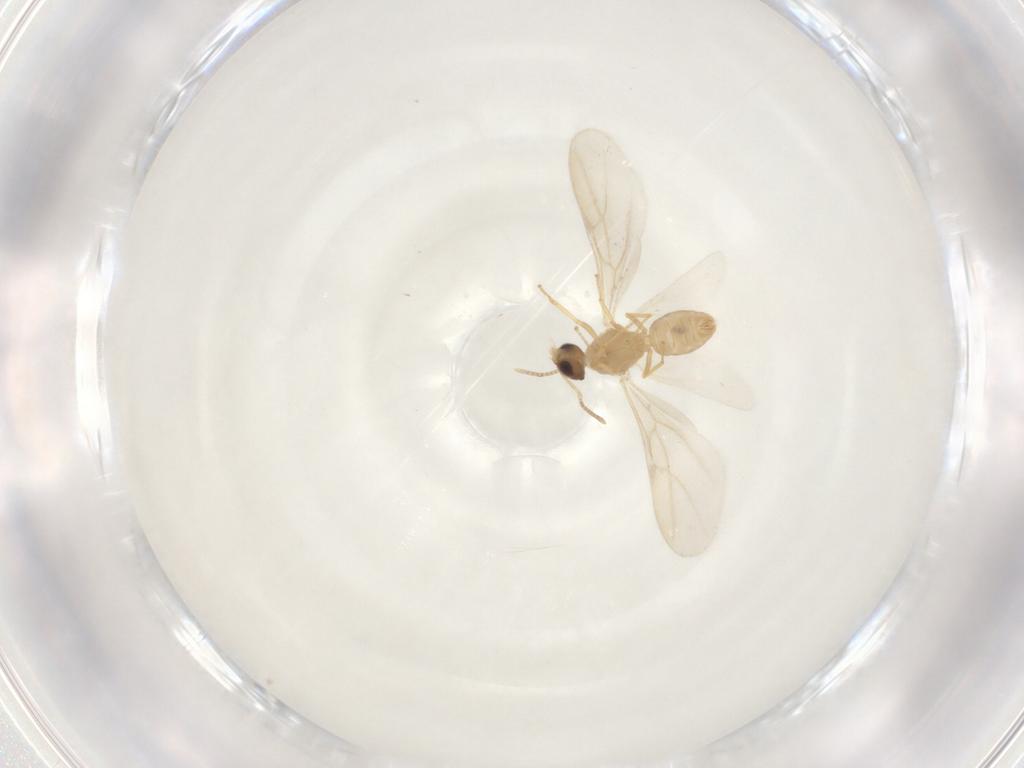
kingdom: Animalia
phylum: Arthropoda
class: Insecta
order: Hymenoptera
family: Formicidae
